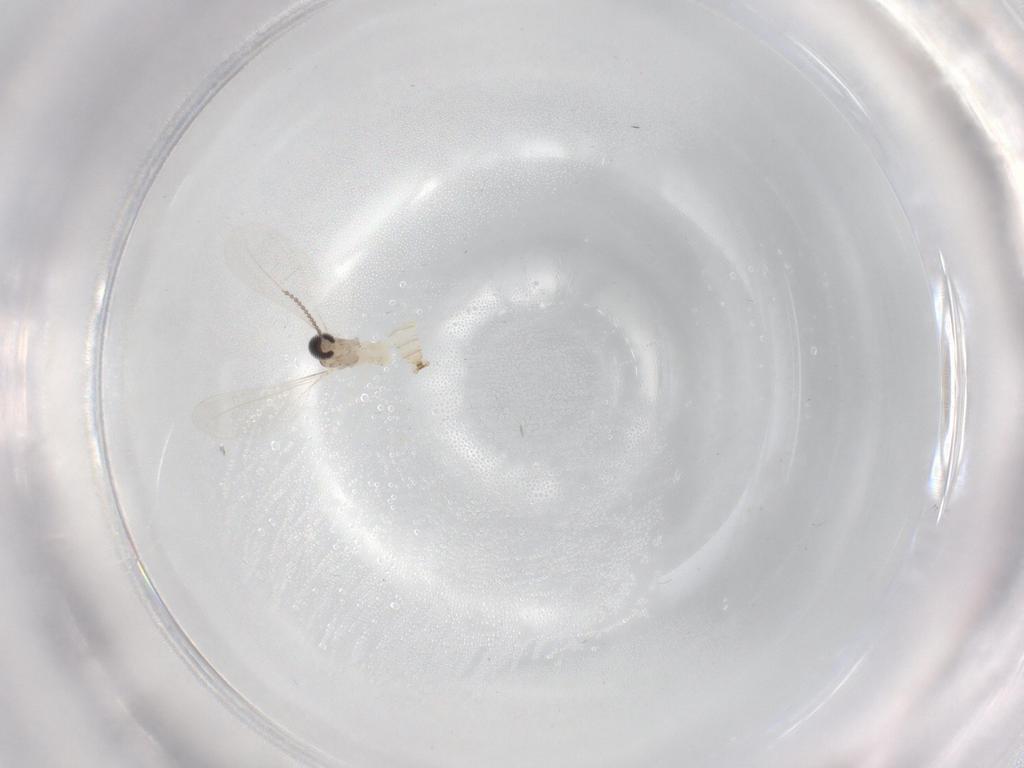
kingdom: Animalia
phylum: Arthropoda
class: Insecta
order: Diptera
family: Cecidomyiidae
